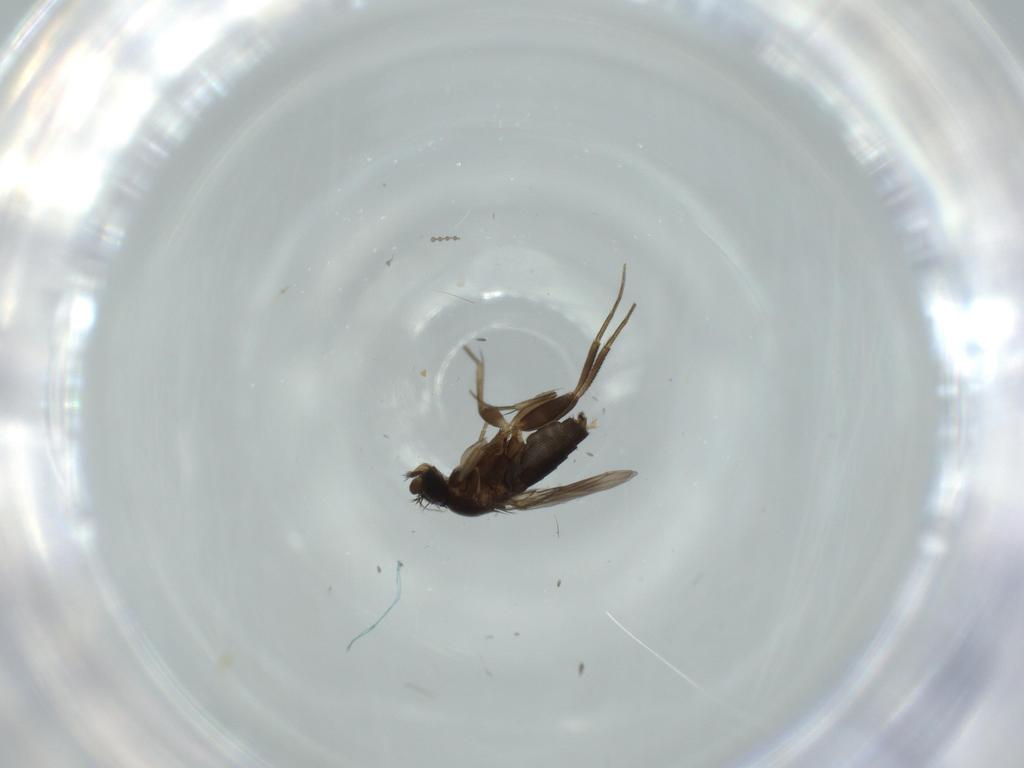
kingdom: Animalia
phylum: Arthropoda
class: Insecta
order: Diptera
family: Phoridae
